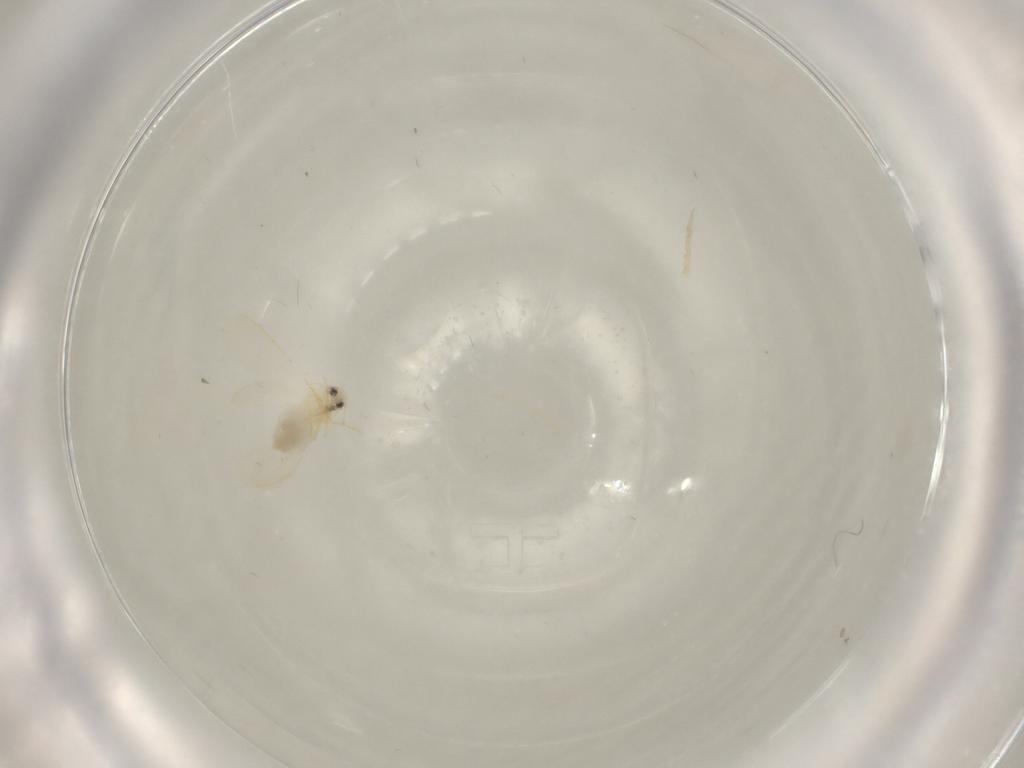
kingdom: Animalia
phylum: Arthropoda
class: Insecta
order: Hemiptera
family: Aleyrodidae
